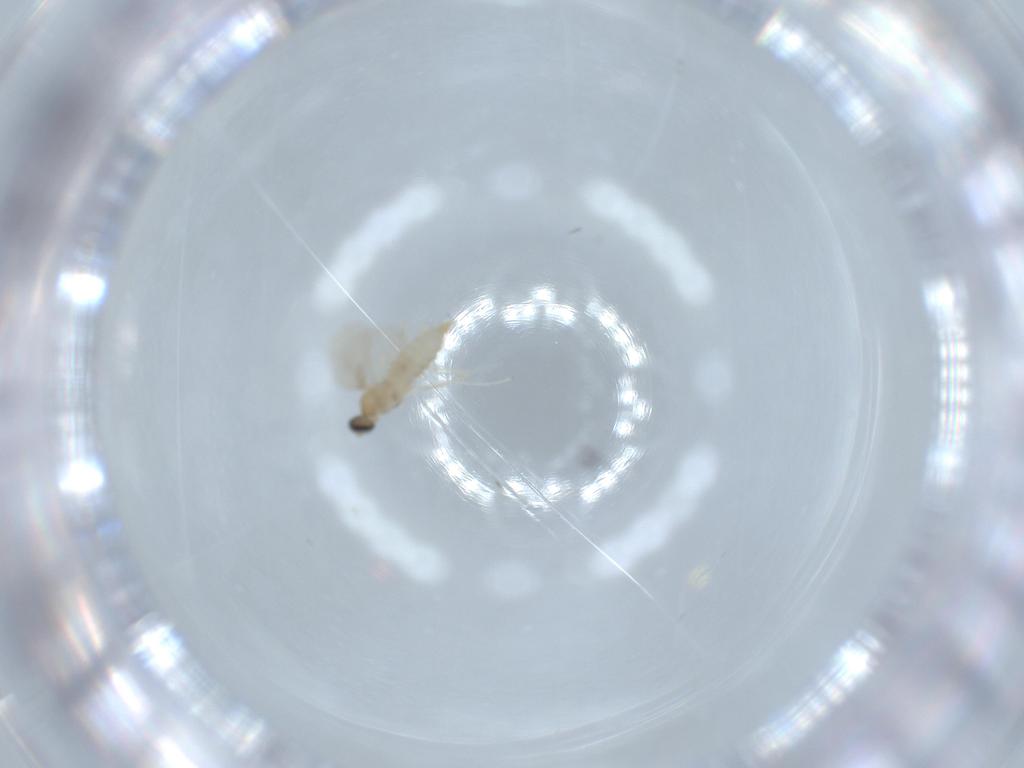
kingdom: Animalia
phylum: Arthropoda
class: Insecta
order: Diptera
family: Cecidomyiidae
